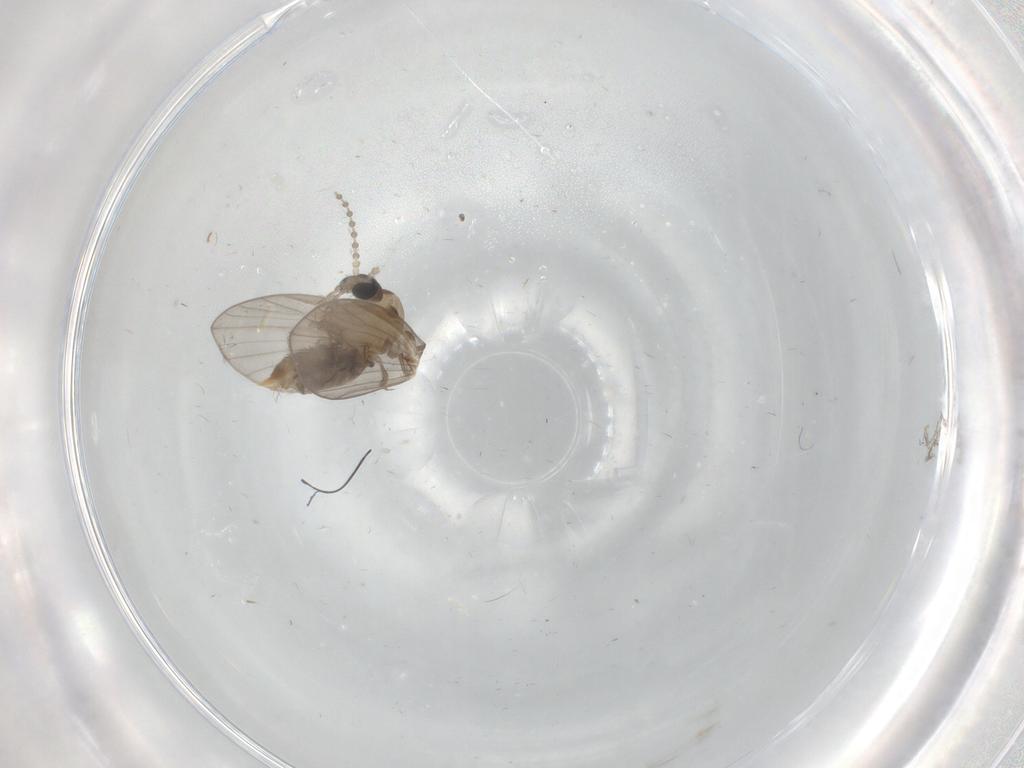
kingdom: Animalia
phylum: Arthropoda
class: Insecta
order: Diptera
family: Psychodidae
